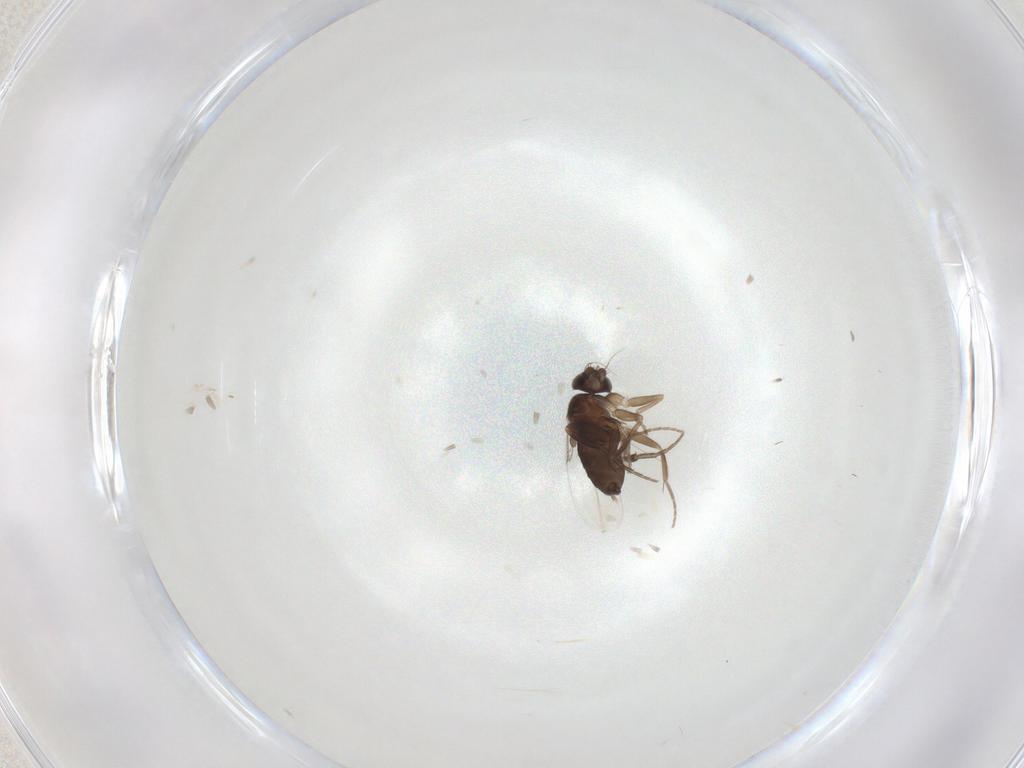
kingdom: Animalia
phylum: Arthropoda
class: Insecta
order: Diptera
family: Phoridae
